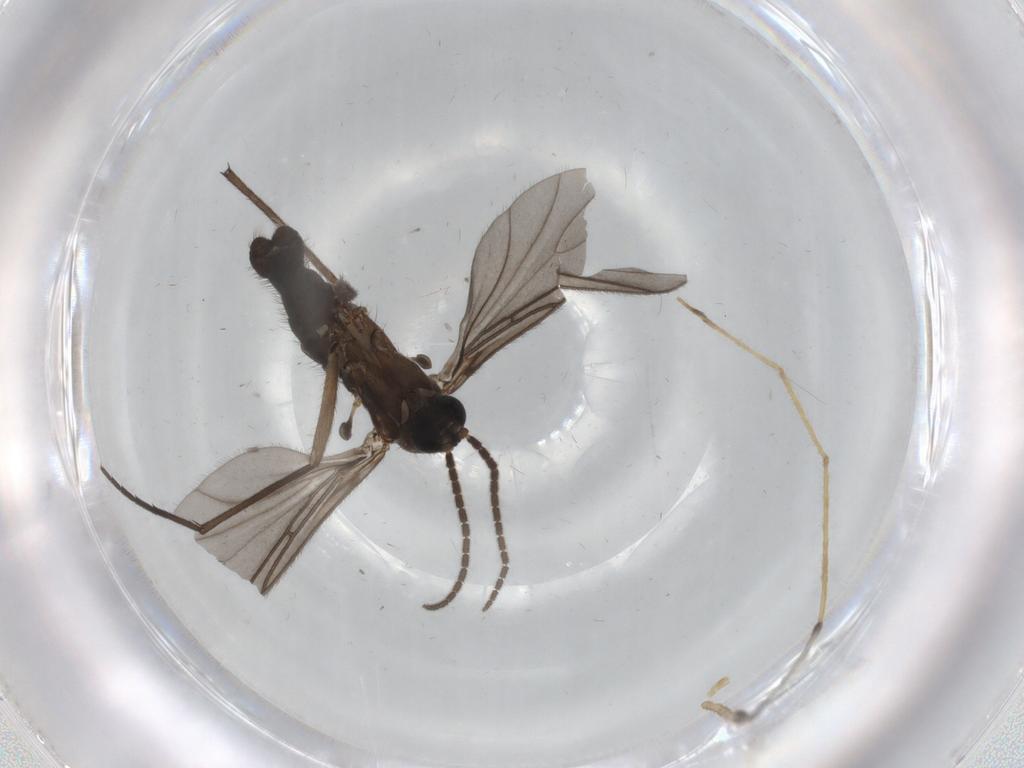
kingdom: Animalia
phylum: Arthropoda
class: Insecta
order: Diptera
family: Sciaridae
